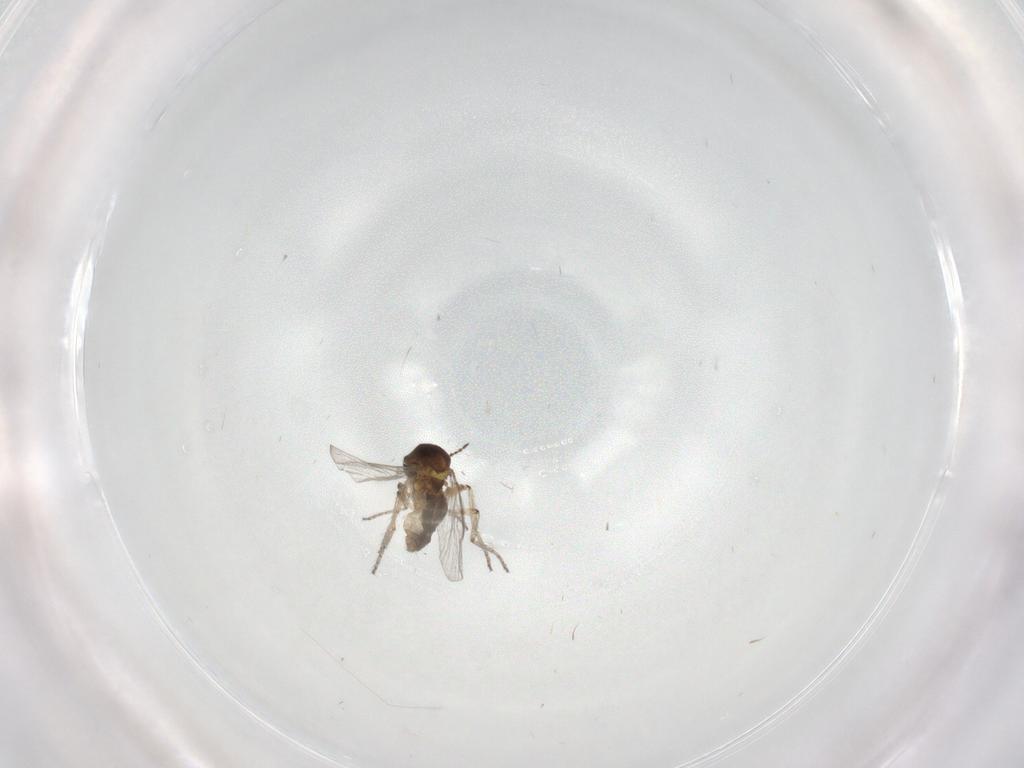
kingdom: Animalia
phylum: Arthropoda
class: Insecta
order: Diptera
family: Ceratopogonidae
